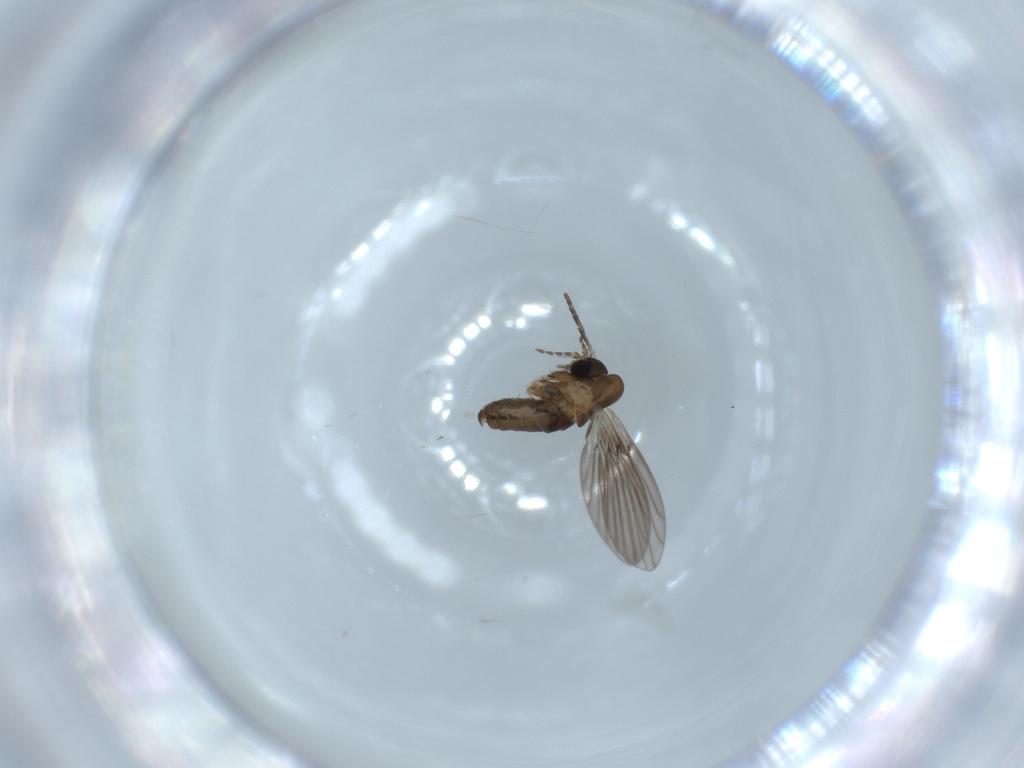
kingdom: Animalia
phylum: Arthropoda
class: Insecta
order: Diptera
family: Psychodidae
